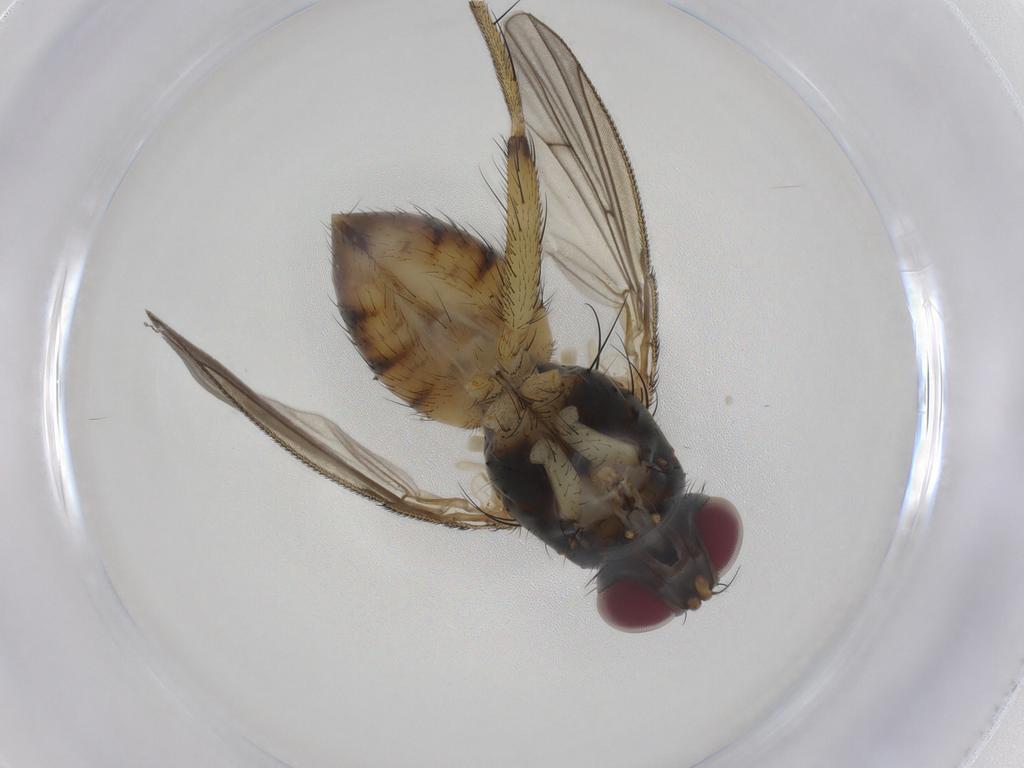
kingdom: Animalia
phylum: Arthropoda
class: Insecta
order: Diptera
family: Muscidae
